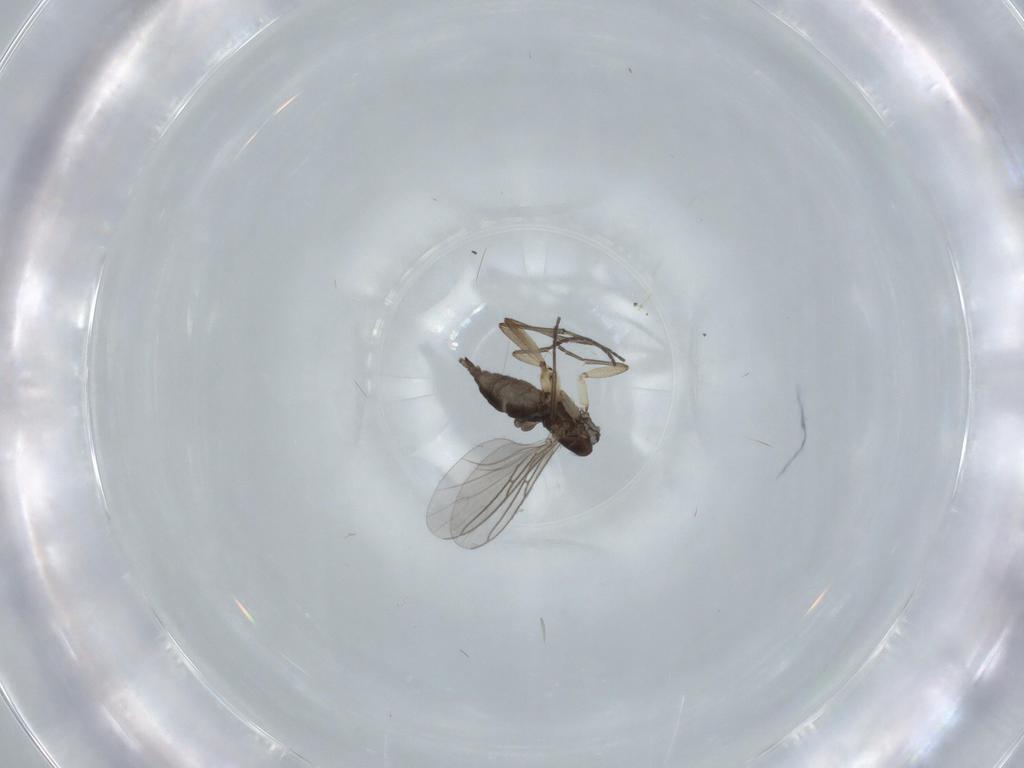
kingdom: Animalia
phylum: Arthropoda
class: Insecta
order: Diptera
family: Sciaridae
